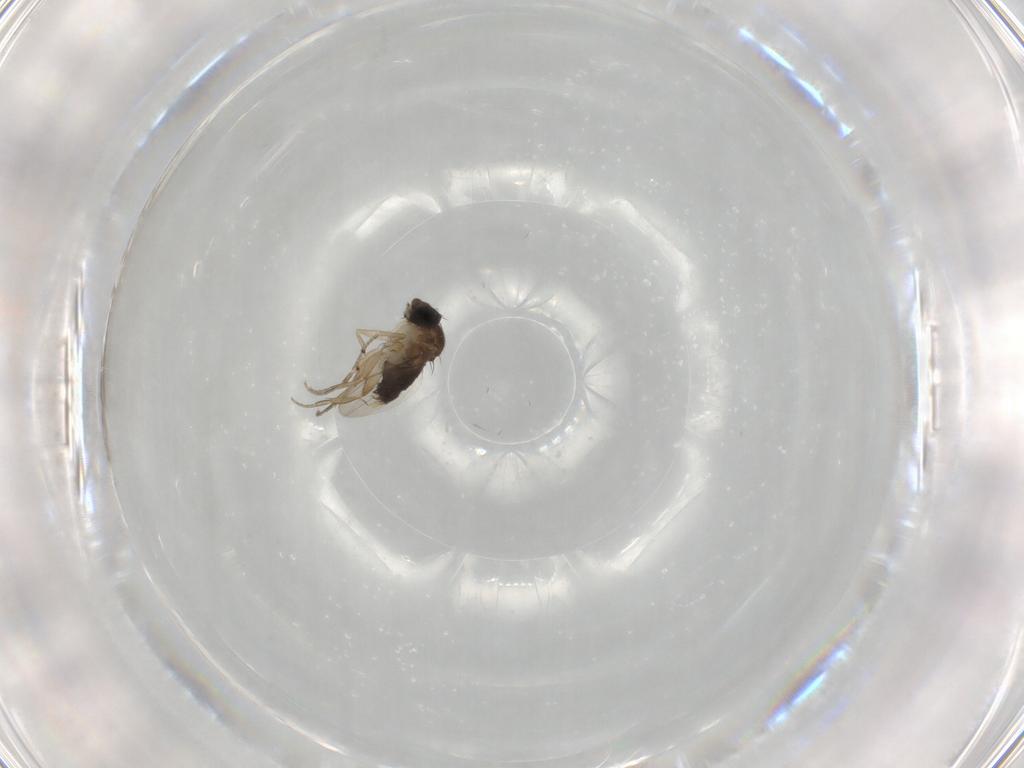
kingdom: Animalia
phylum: Arthropoda
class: Insecta
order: Diptera
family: Phoridae
